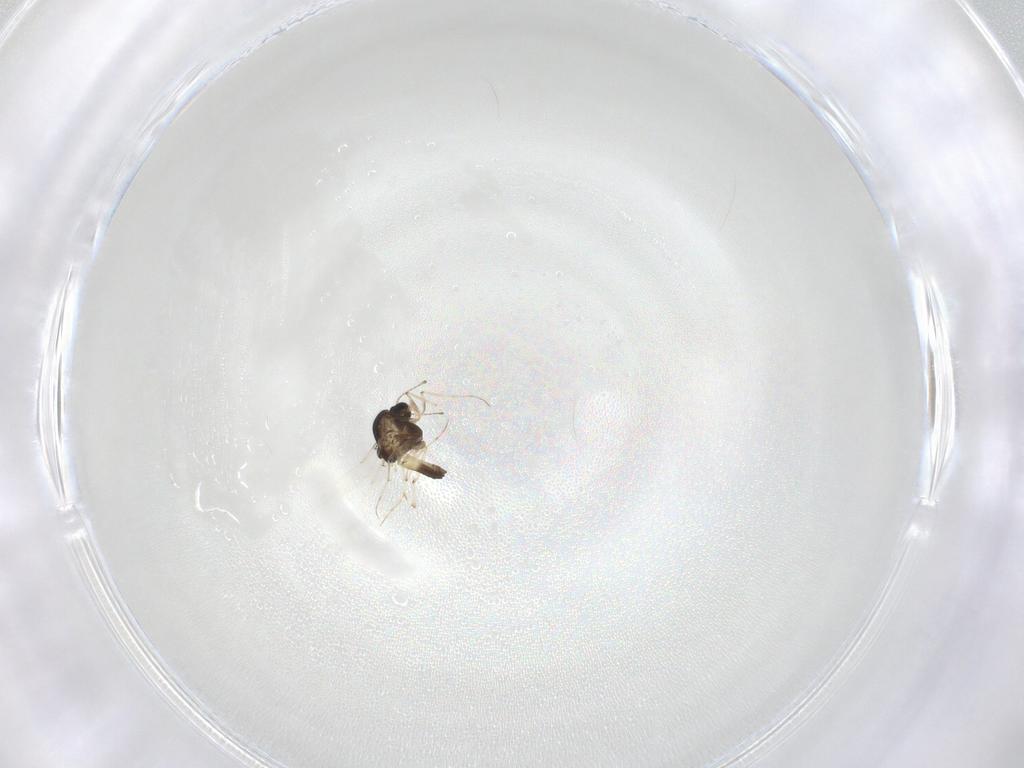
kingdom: Animalia
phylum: Arthropoda
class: Insecta
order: Diptera
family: Chironomidae
